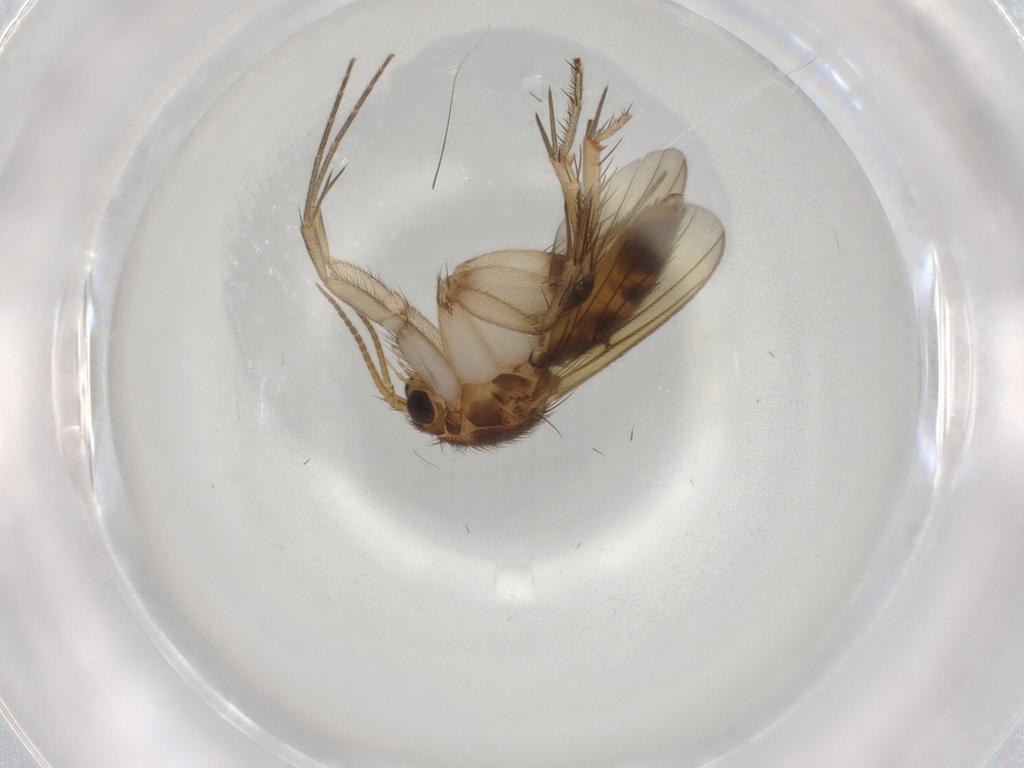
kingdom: Animalia
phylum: Arthropoda
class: Insecta
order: Diptera
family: Phoridae
